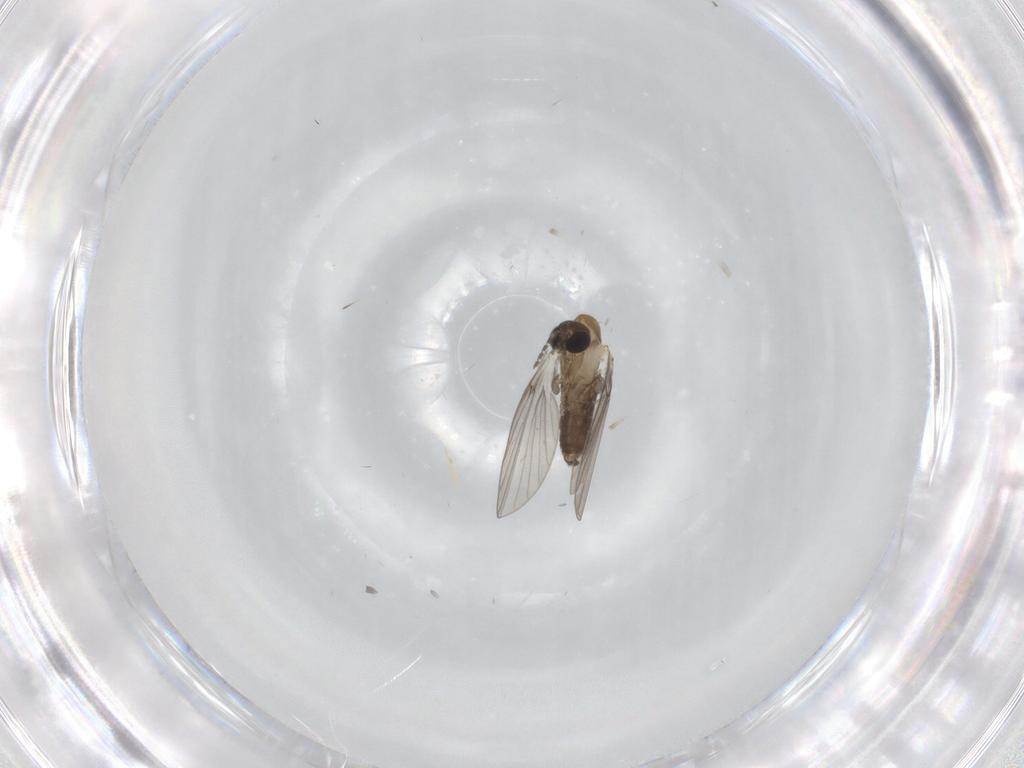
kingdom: Animalia
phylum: Arthropoda
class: Insecta
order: Diptera
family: Psychodidae
